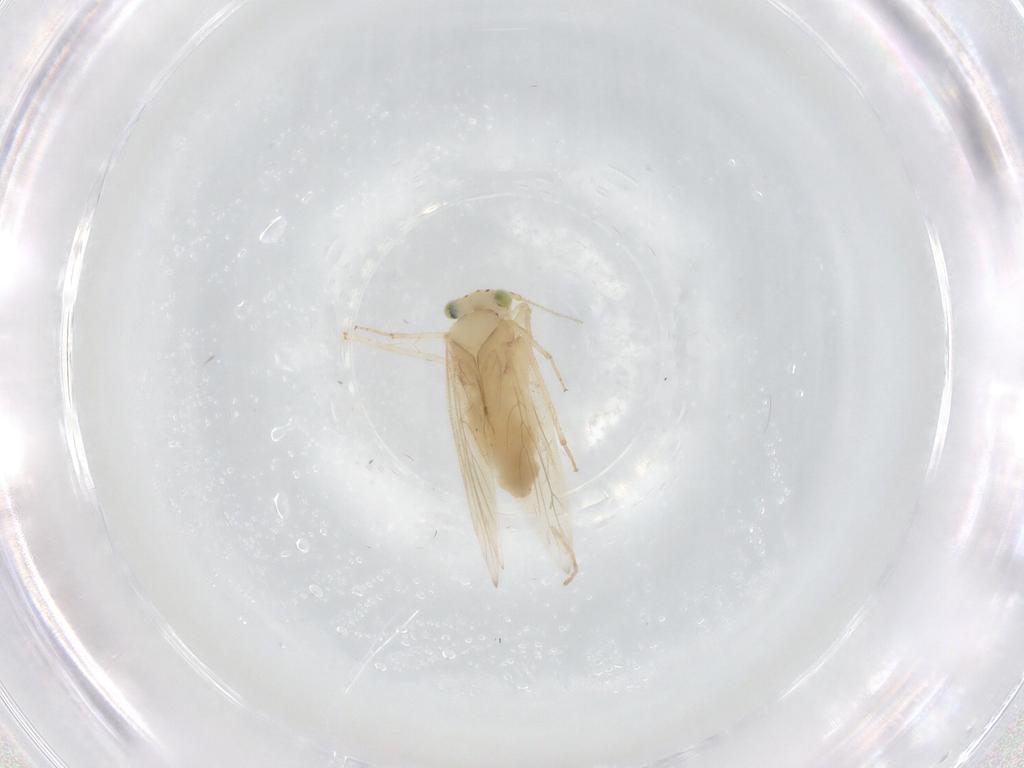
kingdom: Animalia
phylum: Arthropoda
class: Insecta
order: Psocodea
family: Lepidopsocidae
